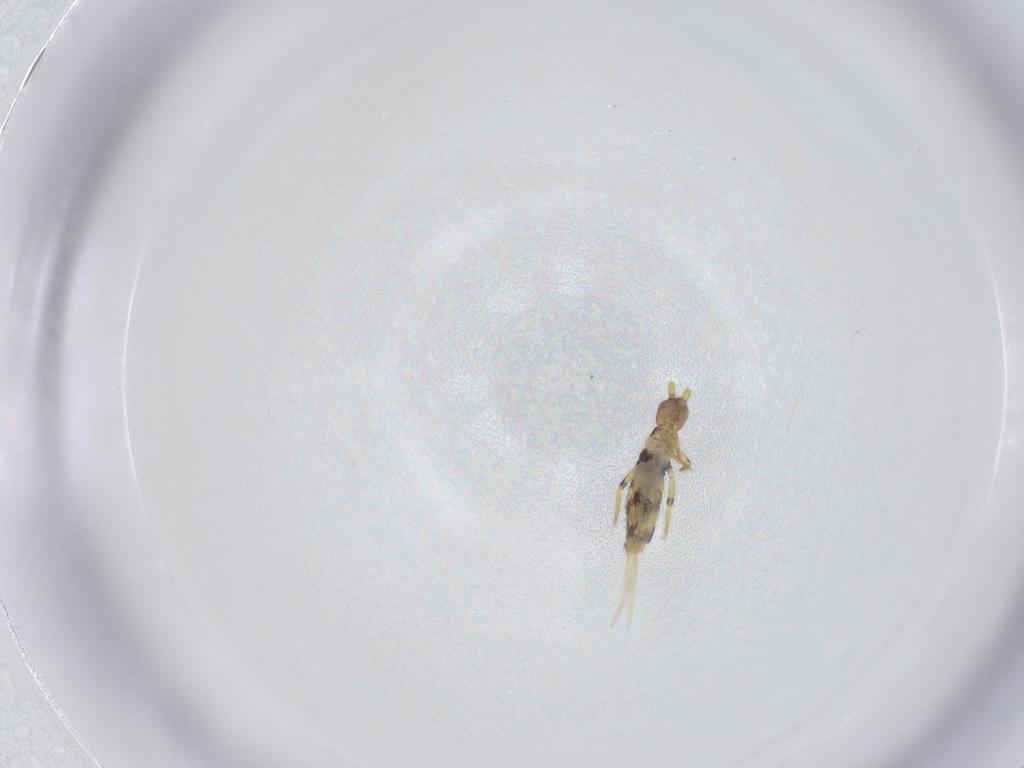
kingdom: Animalia
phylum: Arthropoda
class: Collembola
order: Entomobryomorpha
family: Entomobryidae
